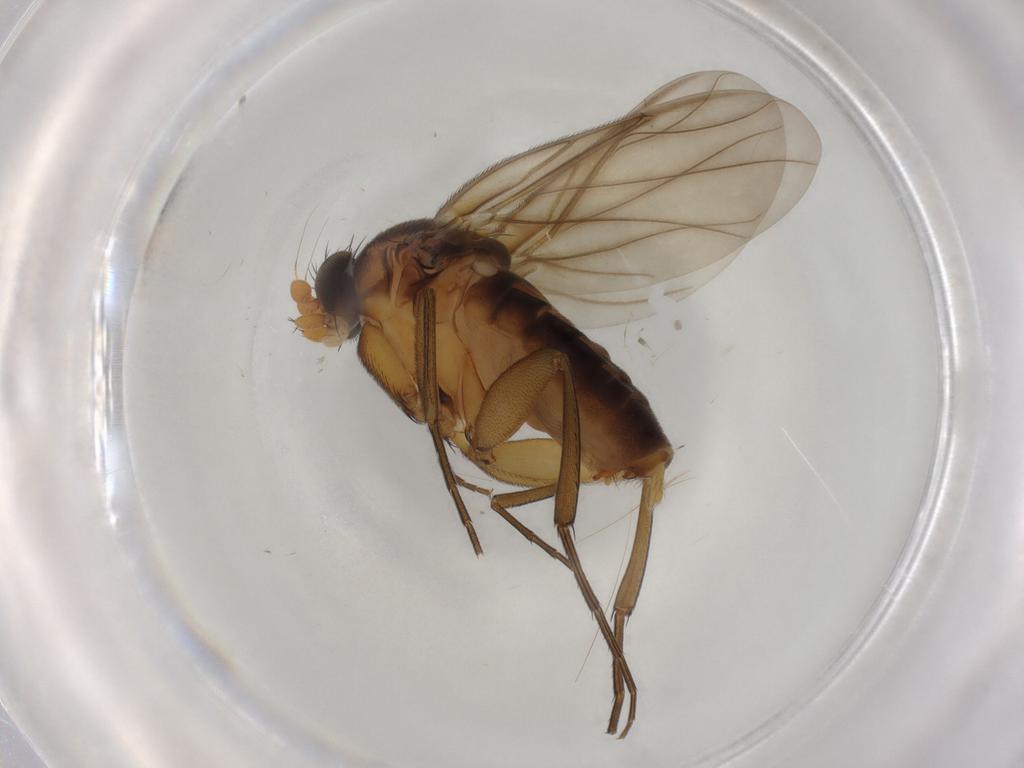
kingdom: Animalia
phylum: Arthropoda
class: Insecta
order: Diptera
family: Phoridae
